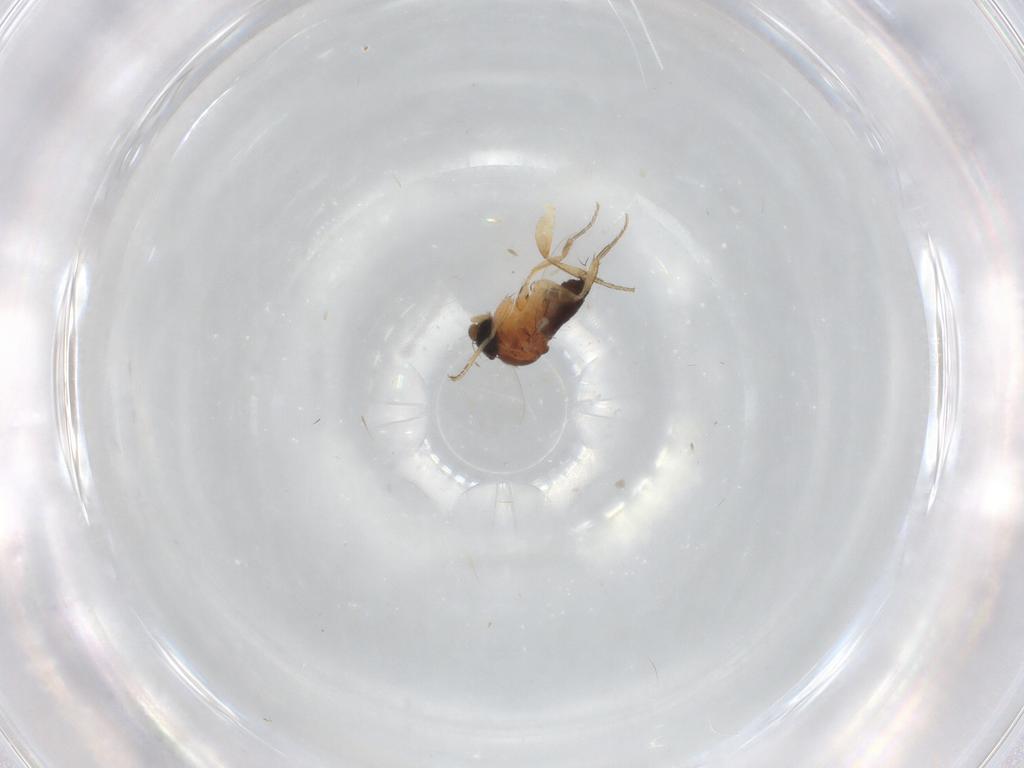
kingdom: Animalia
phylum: Arthropoda
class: Insecta
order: Diptera
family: Phoridae
